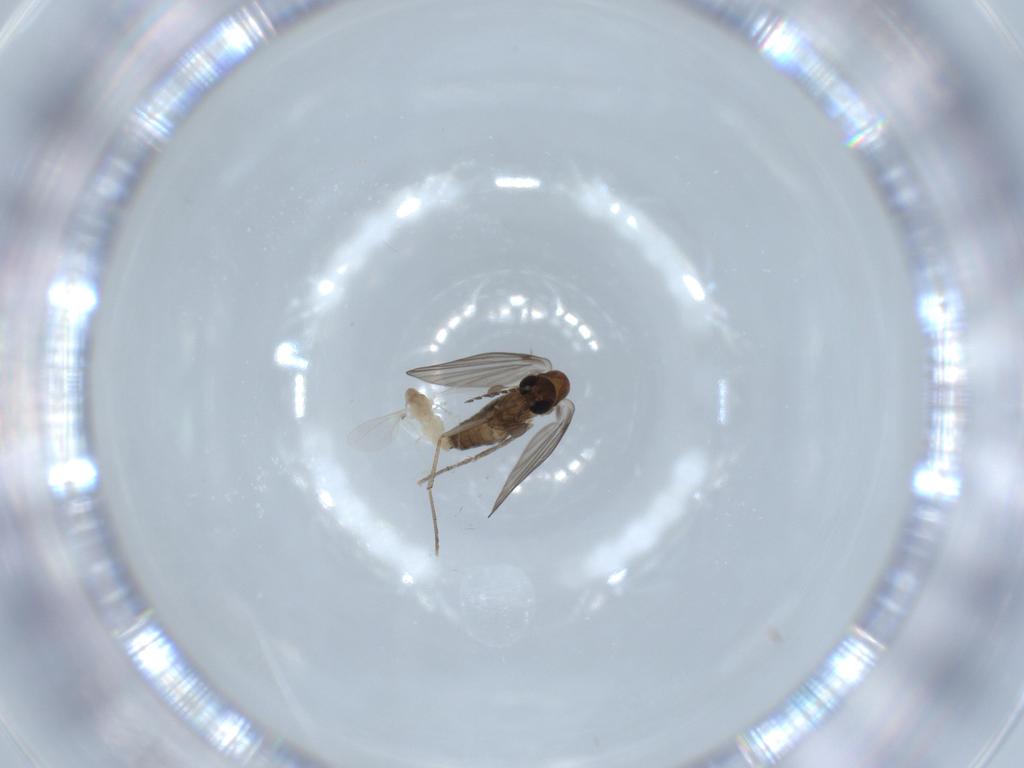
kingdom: Animalia
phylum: Arthropoda
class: Insecta
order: Diptera
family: Cecidomyiidae
